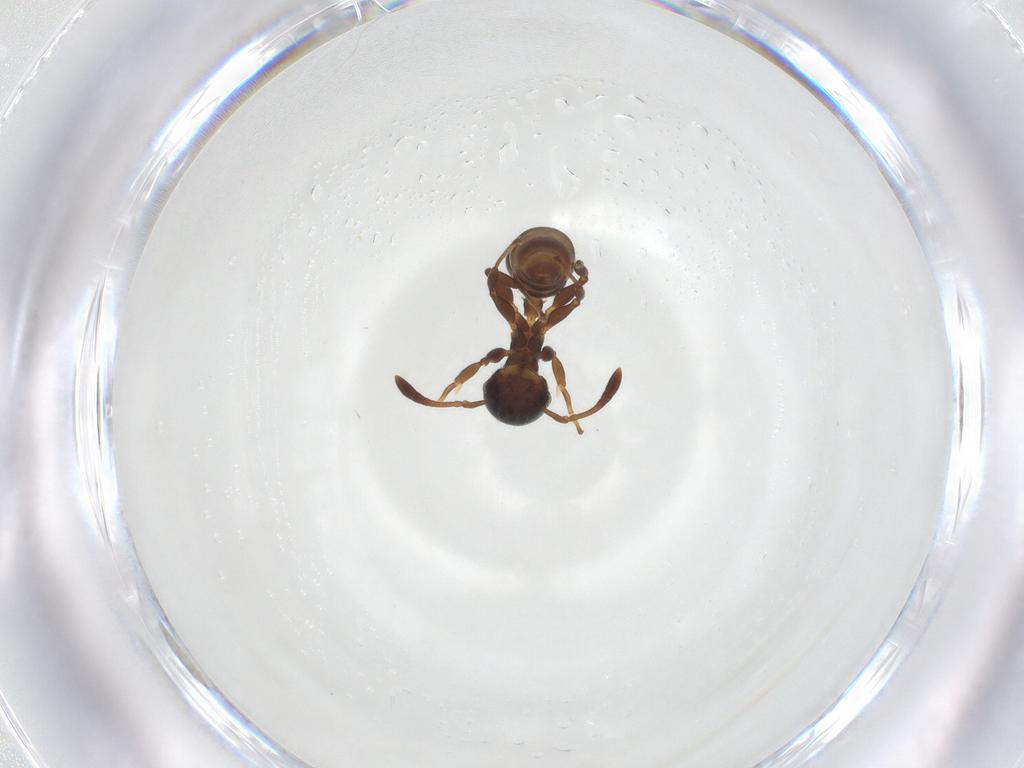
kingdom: Animalia
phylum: Arthropoda
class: Insecta
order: Hymenoptera
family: Formicidae
